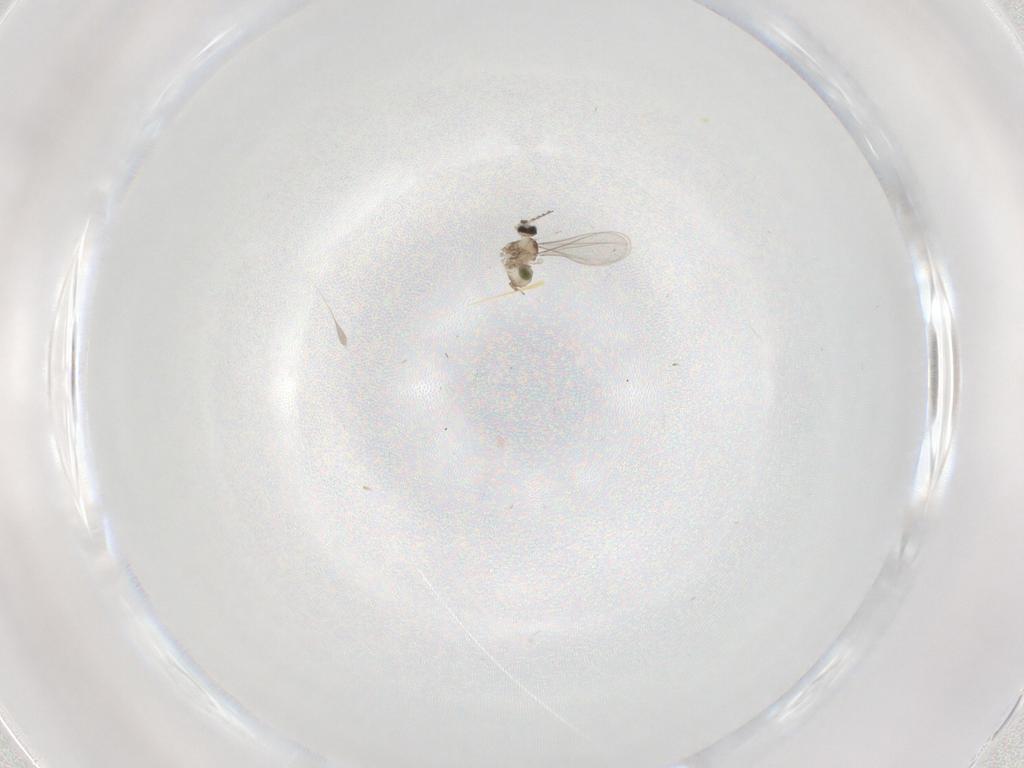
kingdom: Animalia
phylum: Arthropoda
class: Insecta
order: Diptera
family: Cecidomyiidae
